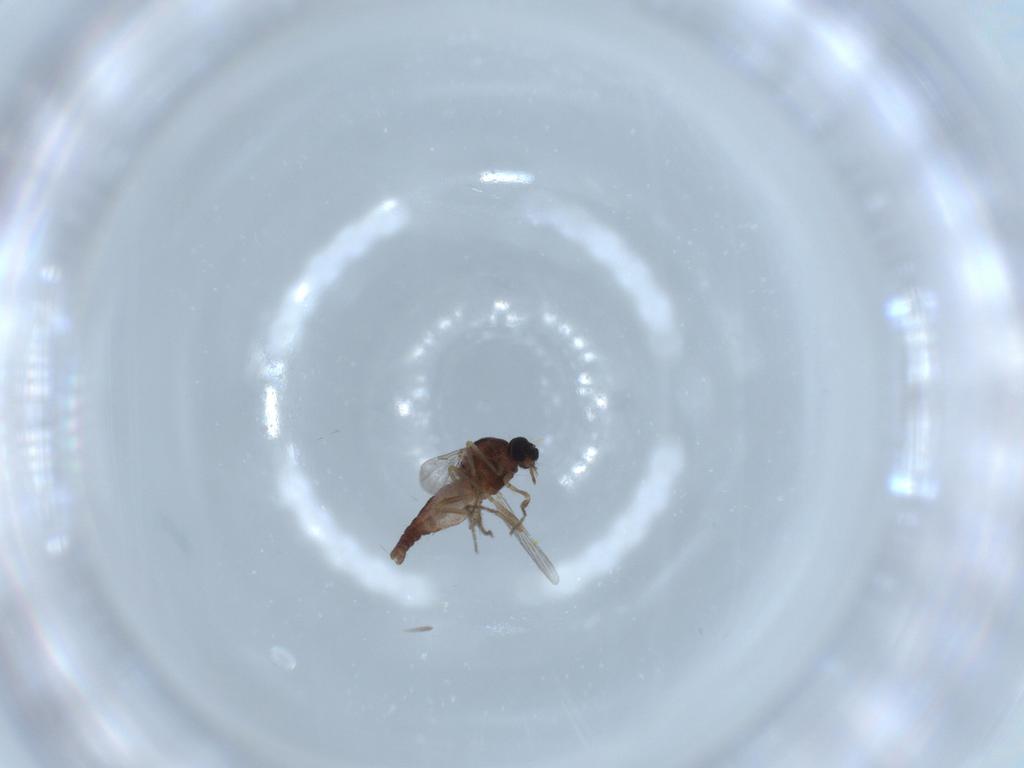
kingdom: Animalia
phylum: Arthropoda
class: Insecta
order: Diptera
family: Ceratopogonidae
